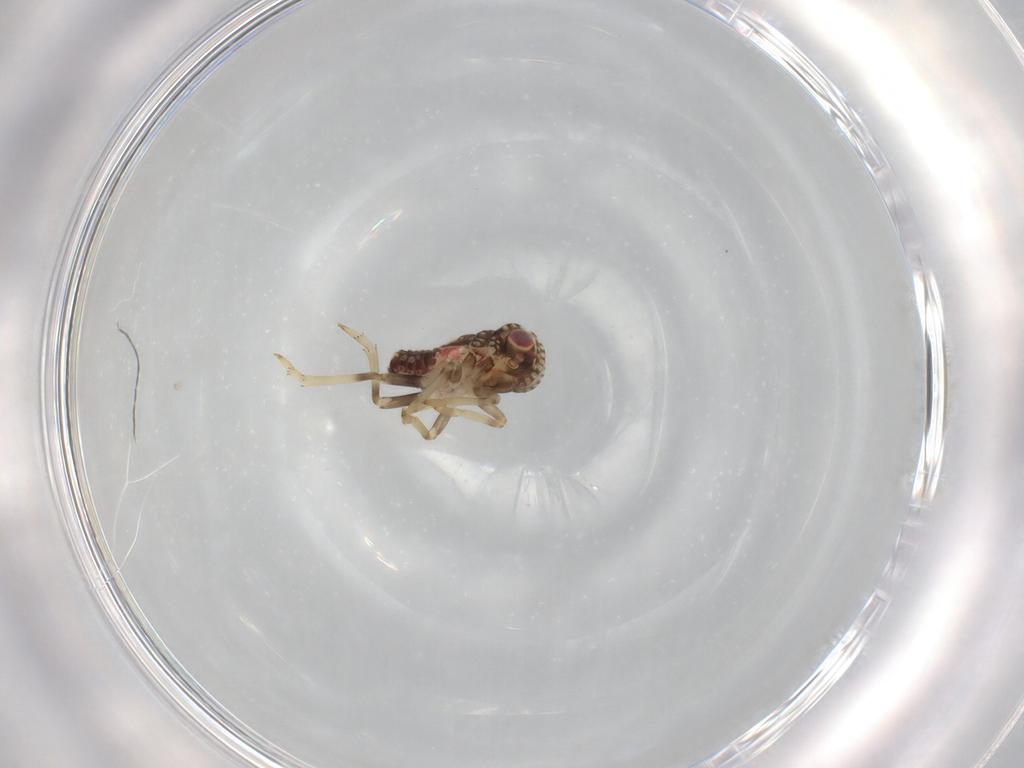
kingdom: Animalia
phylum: Arthropoda
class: Insecta
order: Hemiptera
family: Tropiduchidae
